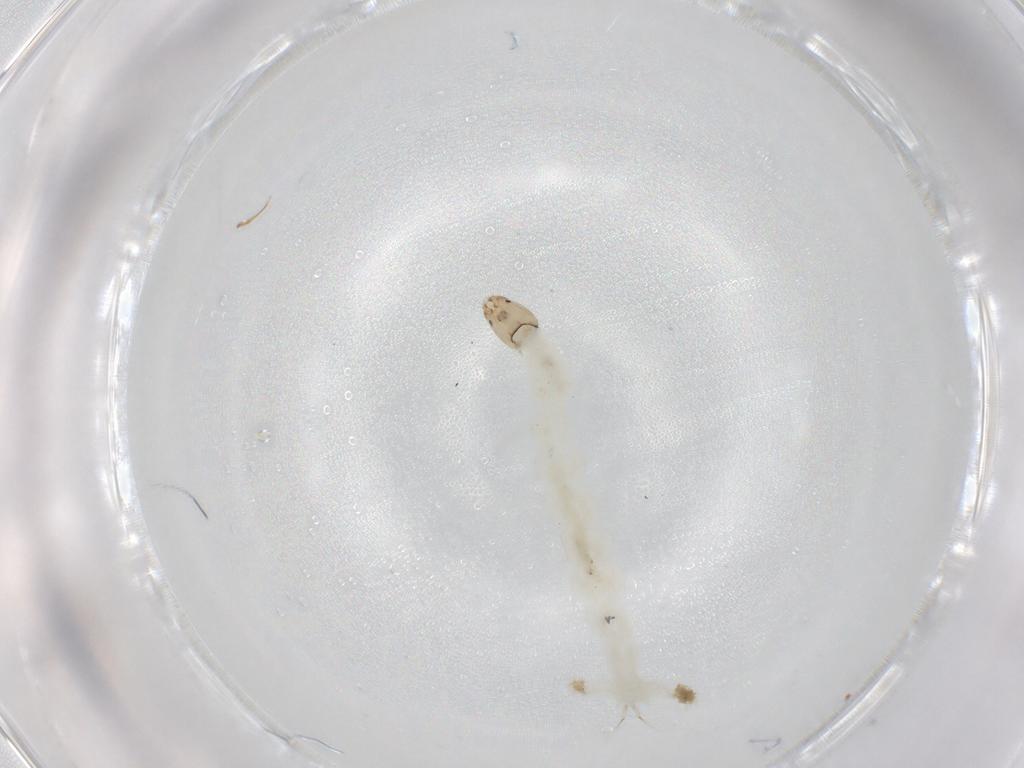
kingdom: Animalia
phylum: Arthropoda
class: Insecta
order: Diptera
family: Chironomidae
